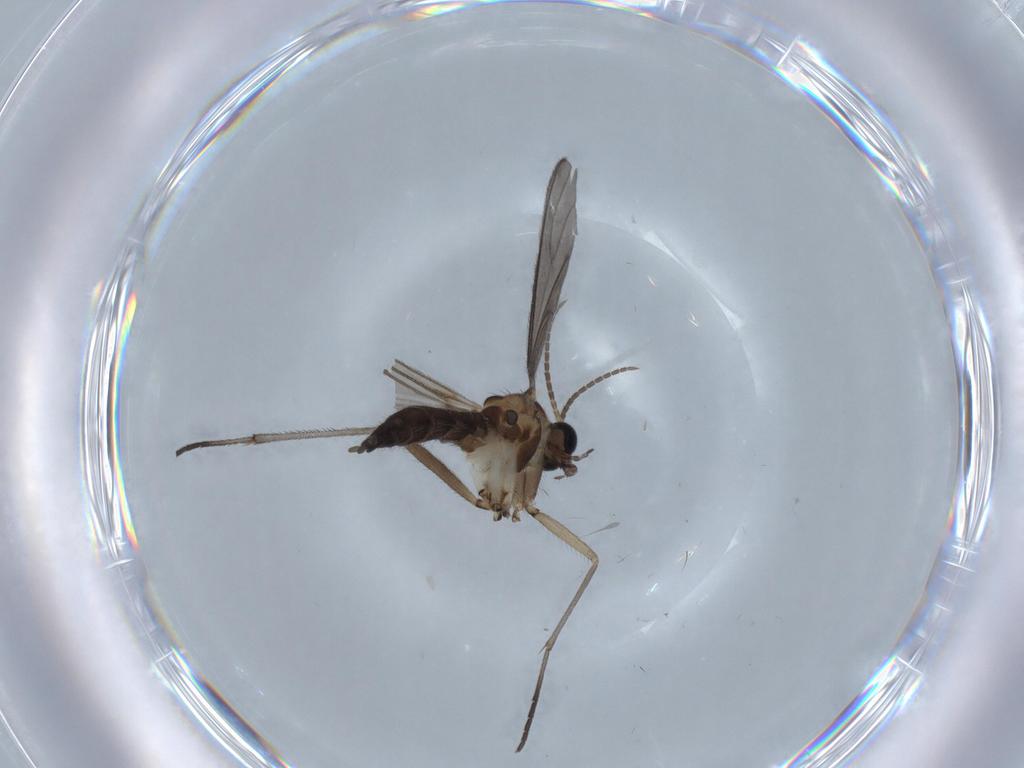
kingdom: Animalia
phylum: Arthropoda
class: Insecta
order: Diptera
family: Sciaridae
